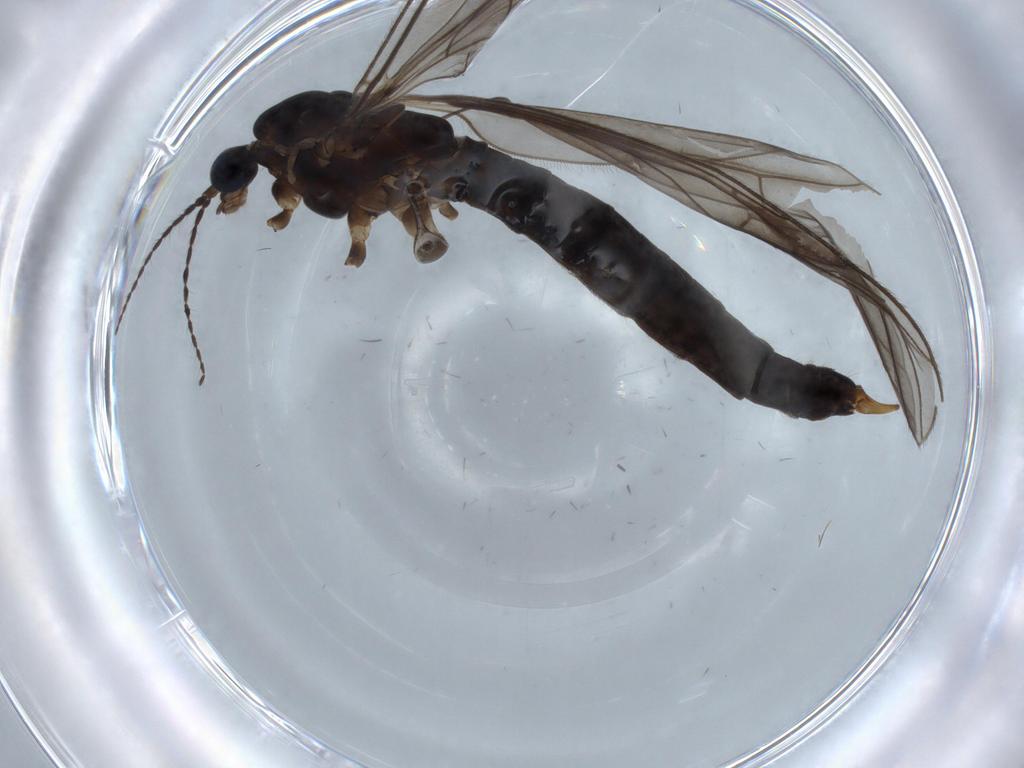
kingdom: Animalia
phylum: Arthropoda
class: Insecta
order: Diptera
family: Cecidomyiidae
